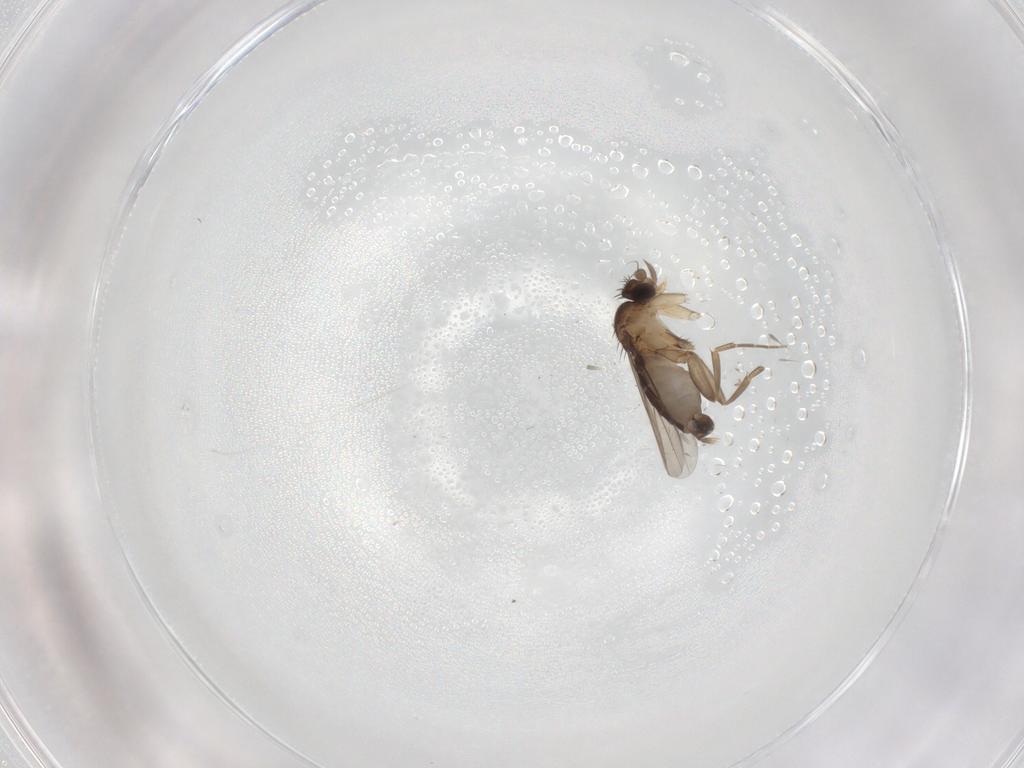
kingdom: Animalia
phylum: Arthropoda
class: Insecta
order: Diptera
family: Phoridae
